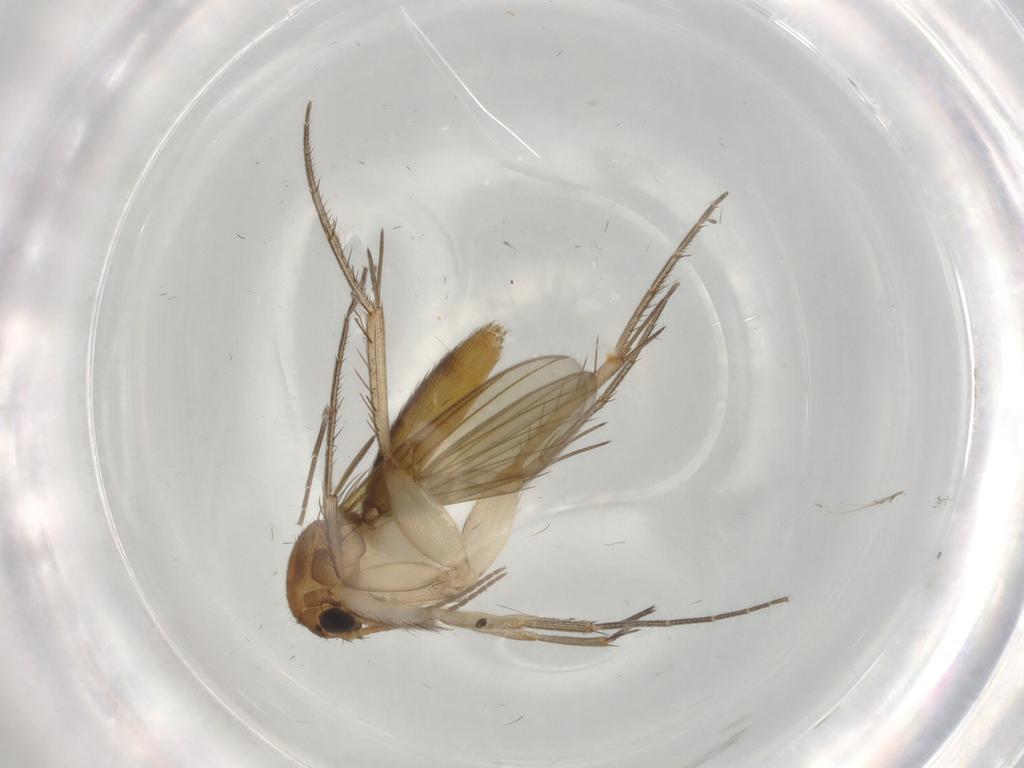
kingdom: Animalia
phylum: Arthropoda
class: Insecta
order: Diptera
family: Mycetophilidae
